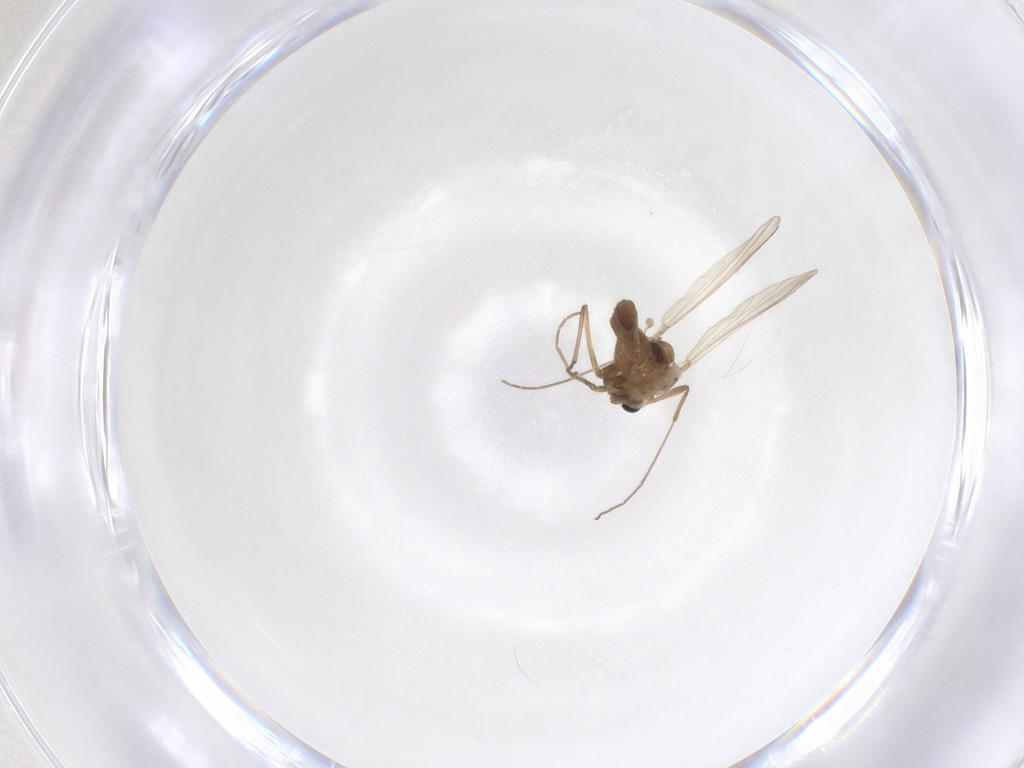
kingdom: Animalia
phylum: Arthropoda
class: Insecta
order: Diptera
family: Chironomidae
